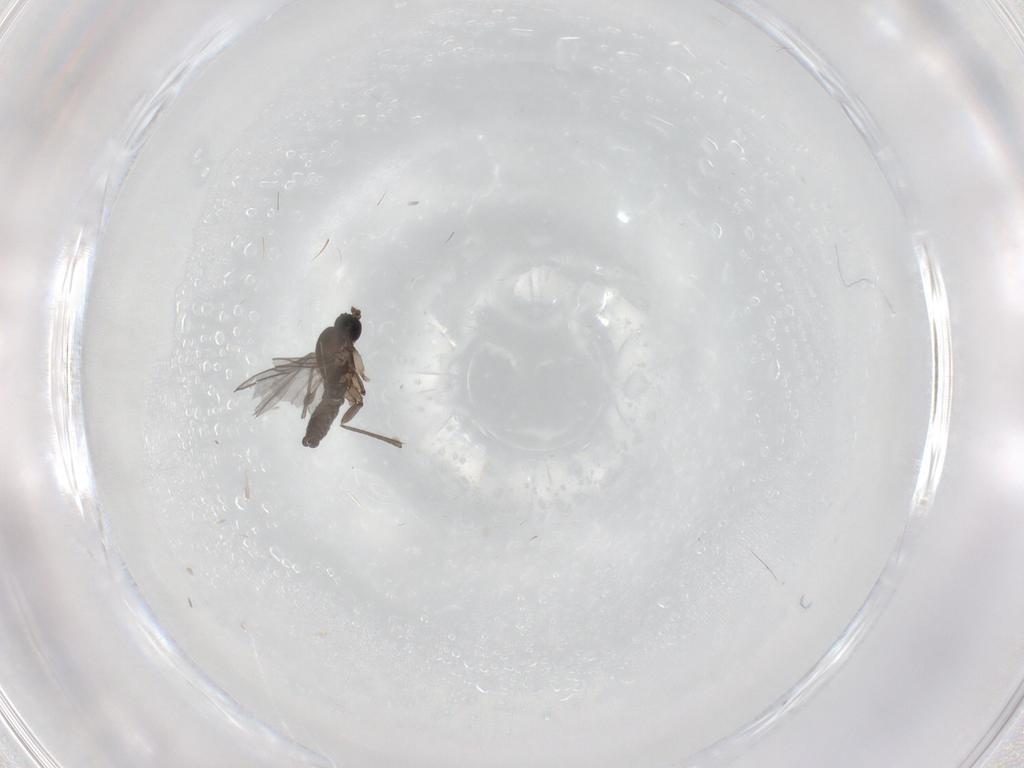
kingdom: Animalia
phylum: Arthropoda
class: Insecta
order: Diptera
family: Sciaridae
